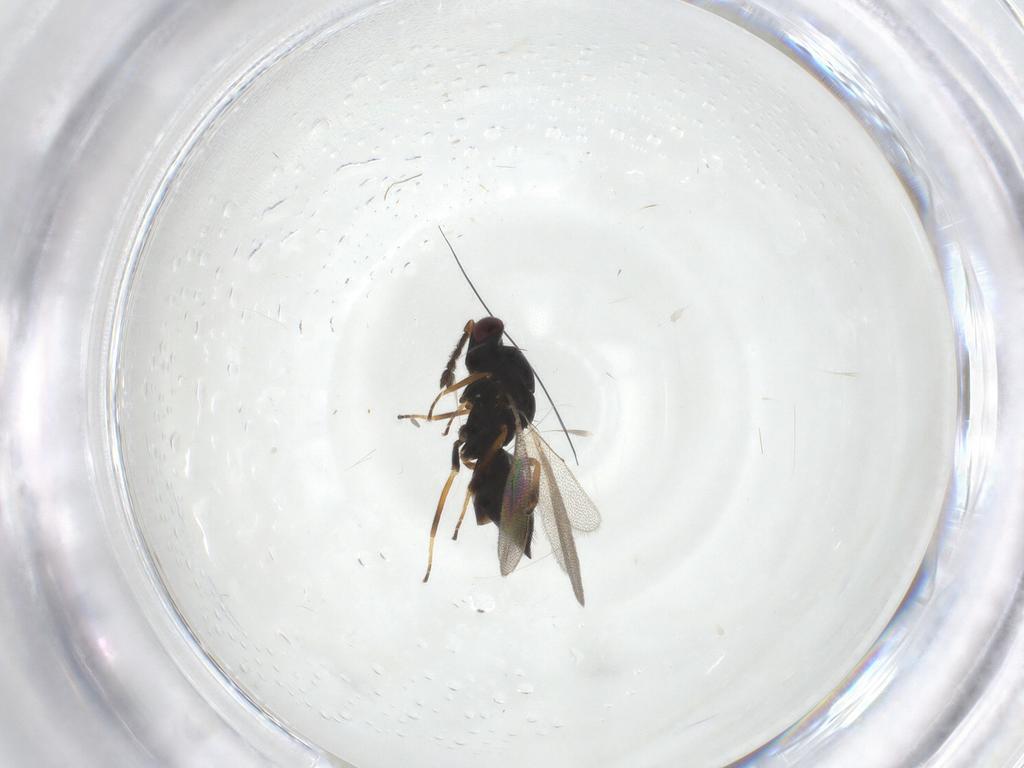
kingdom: Animalia
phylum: Arthropoda
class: Insecta
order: Hymenoptera
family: Eulophidae
